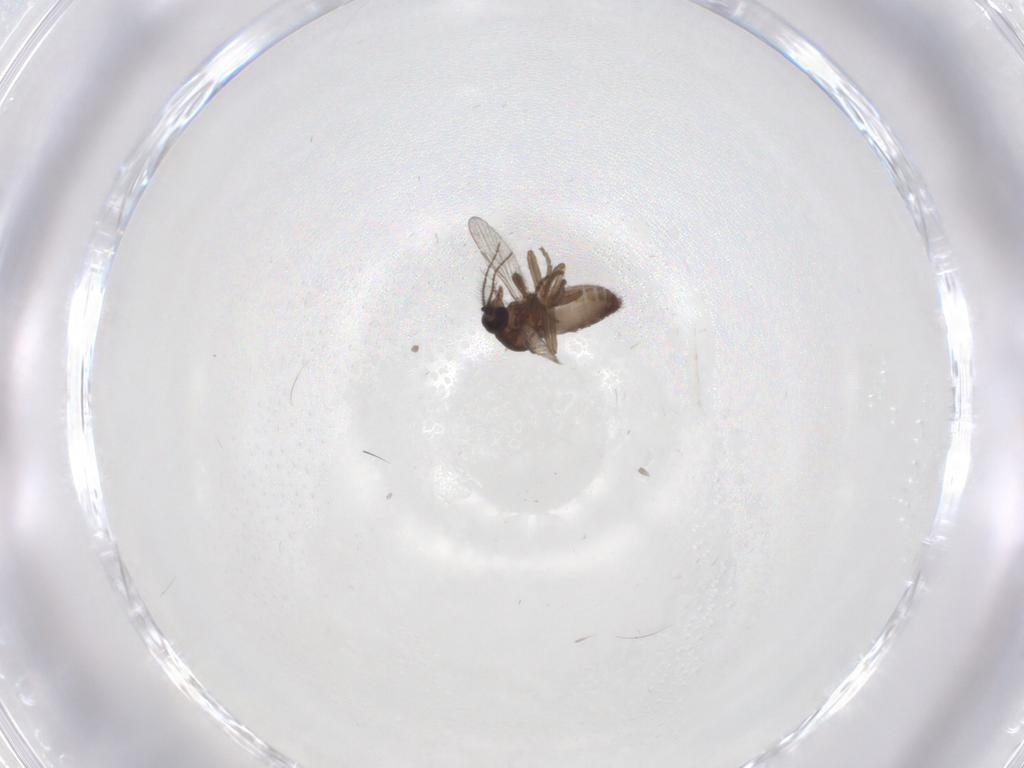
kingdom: Animalia
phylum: Arthropoda
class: Insecta
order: Diptera
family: Ceratopogonidae
